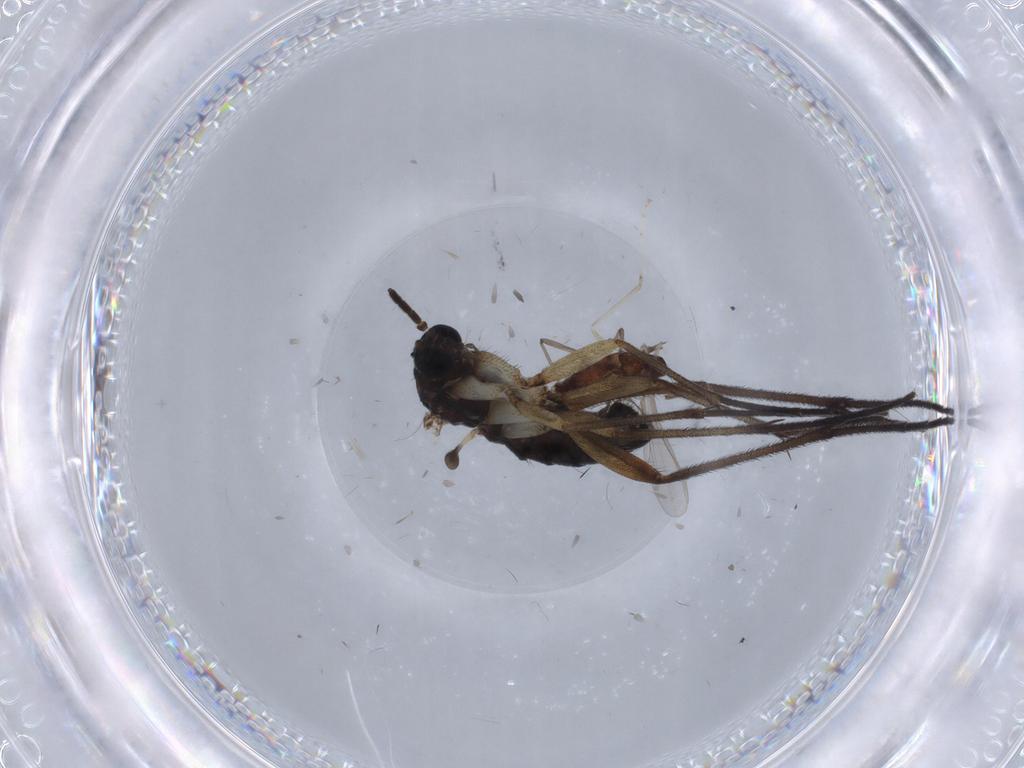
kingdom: Animalia
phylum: Arthropoda
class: Insecta
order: Diptera
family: Sciaridae
